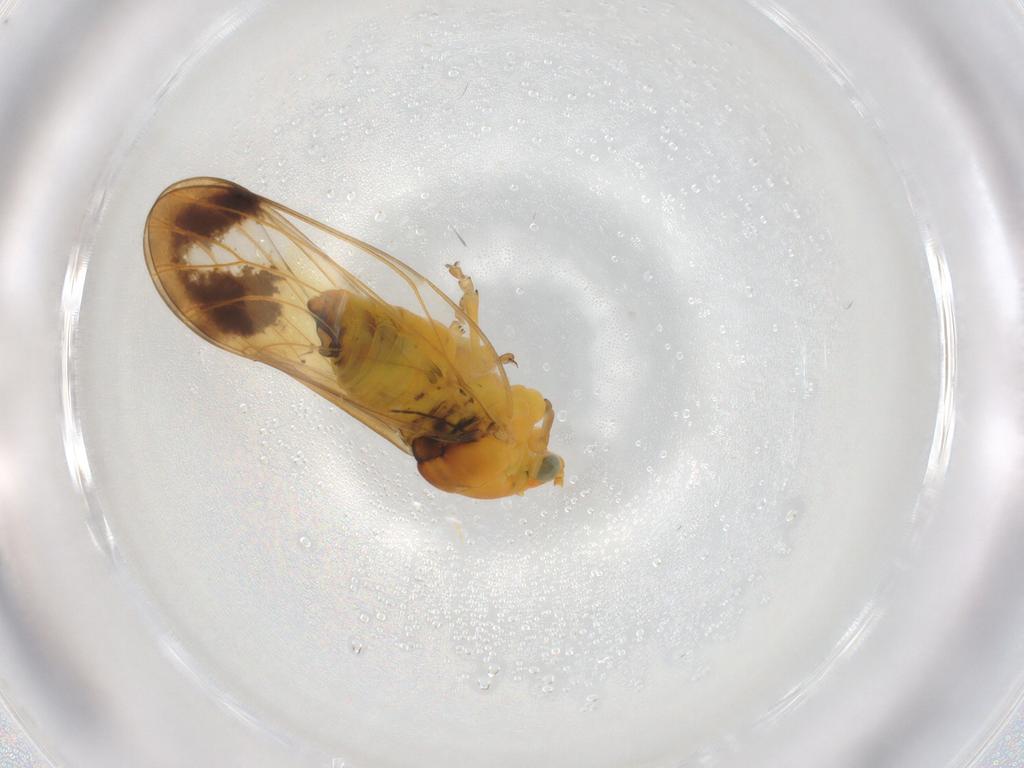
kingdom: Animalia
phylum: Arthropoda
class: Insecta
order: Hemiptera
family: Aphalaridae
